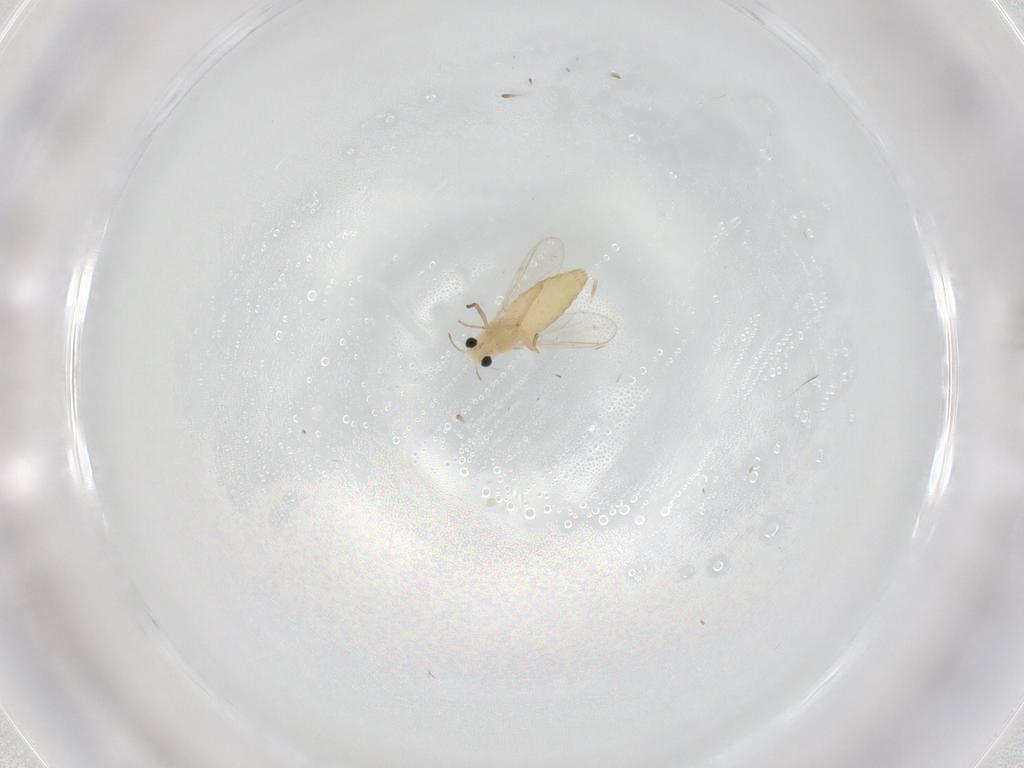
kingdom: Animalia
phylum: Arthropoda
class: Insecta
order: Diptera
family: Chironomidae
